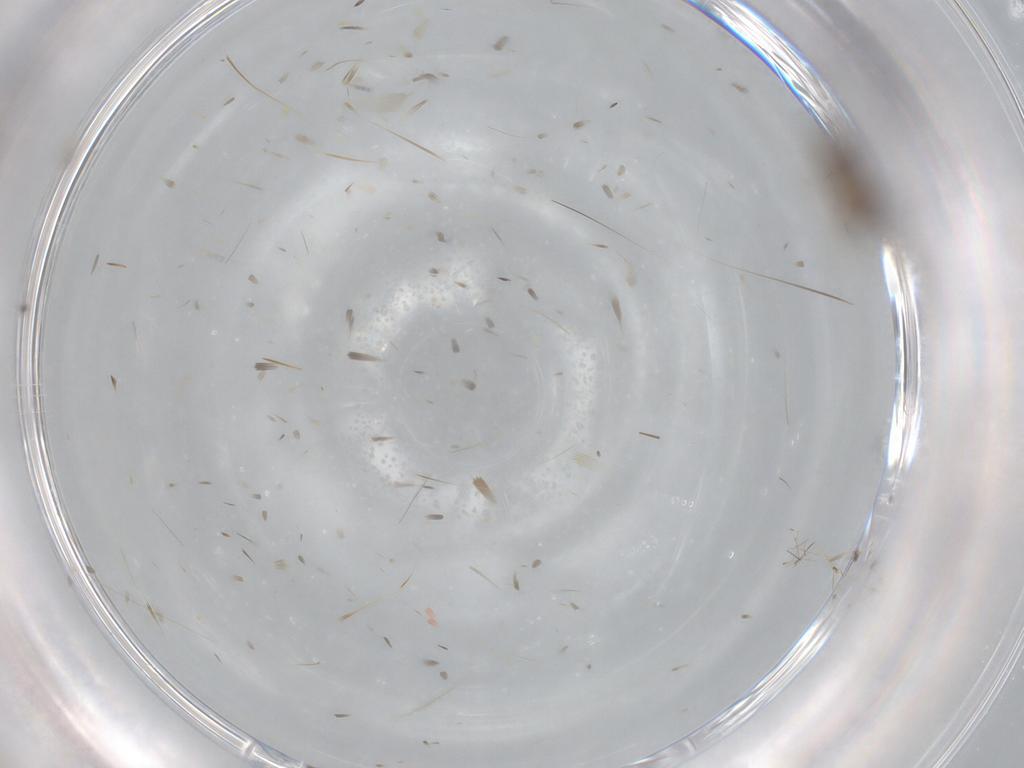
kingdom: Animalia
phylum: Arthropoda
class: Insecta
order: Diptera
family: Cecidomyiidae
